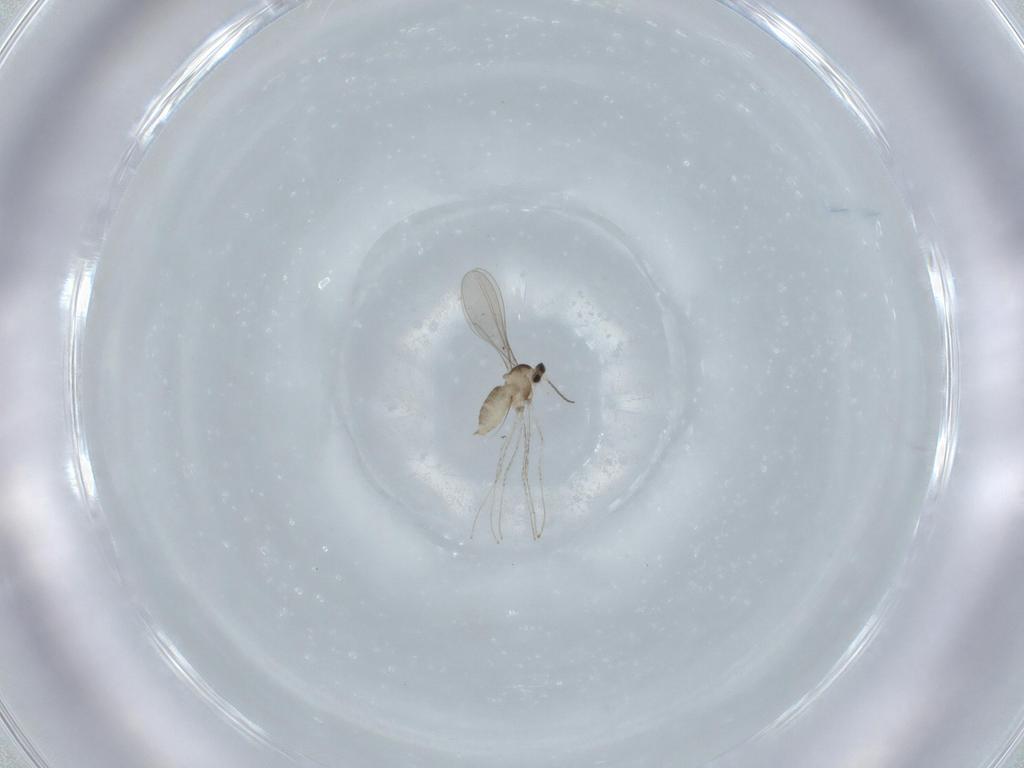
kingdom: Animalia
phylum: Arthropoda
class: Insecta
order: Diptera
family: Cecidomyiidae
